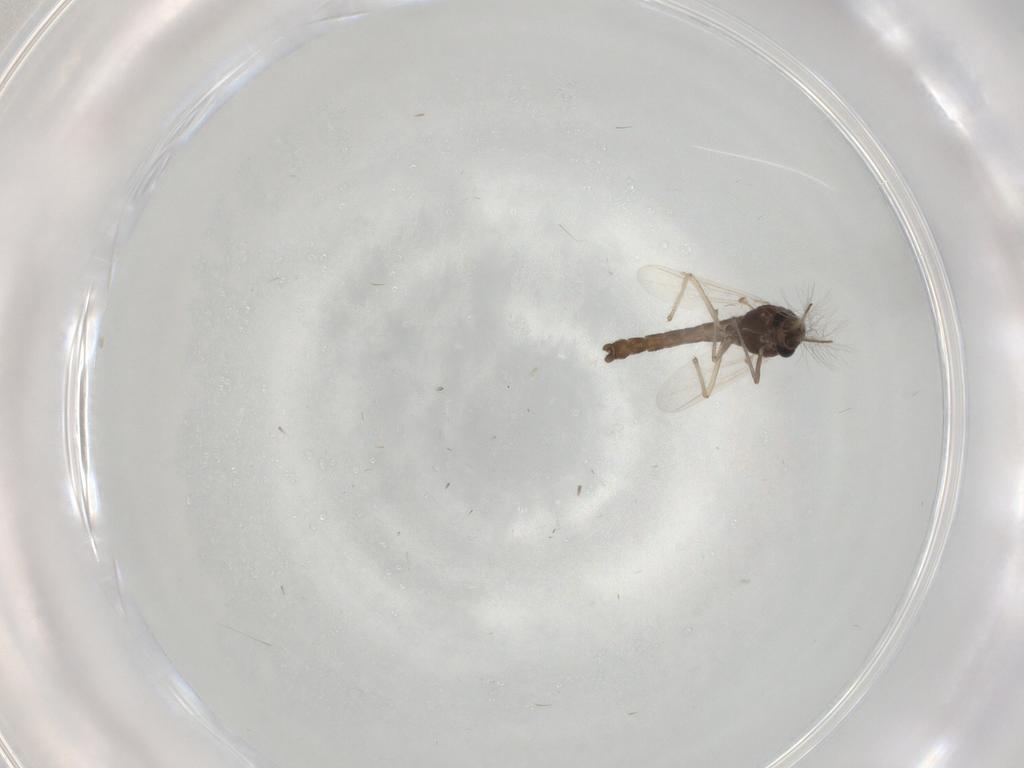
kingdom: Animalia
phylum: Arthropoda
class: Insecta
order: Diptera
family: Chironomidae
